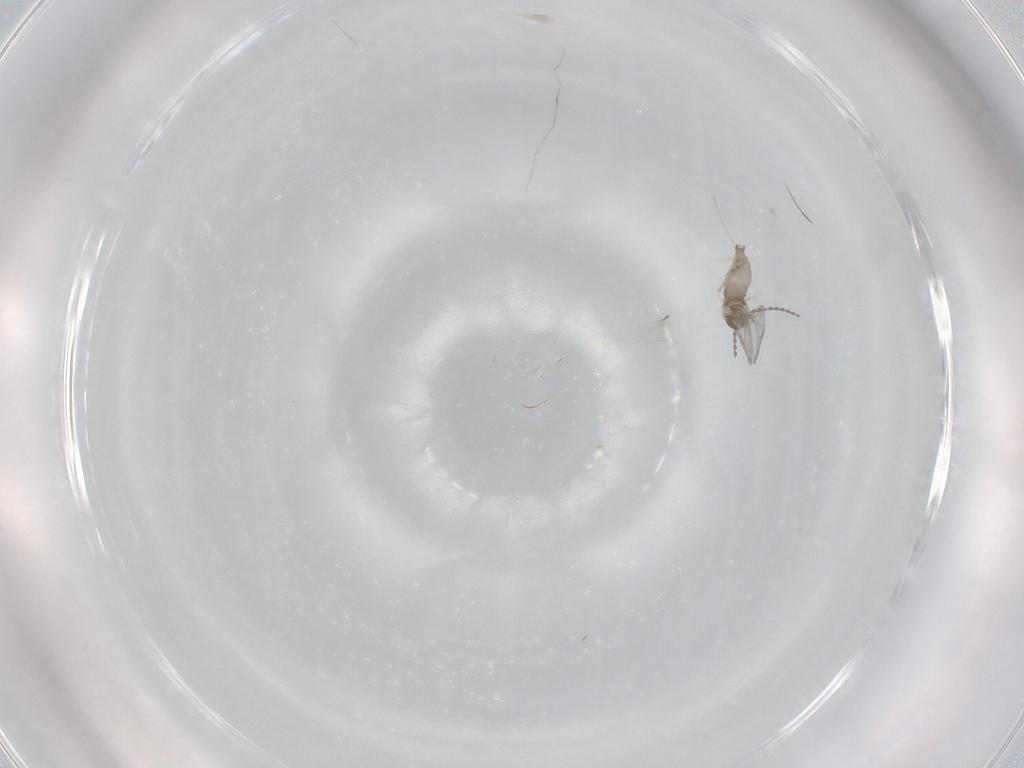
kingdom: Animalia
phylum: Arthropoda
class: Insecta
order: Diptera
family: Cecidomyiidae
